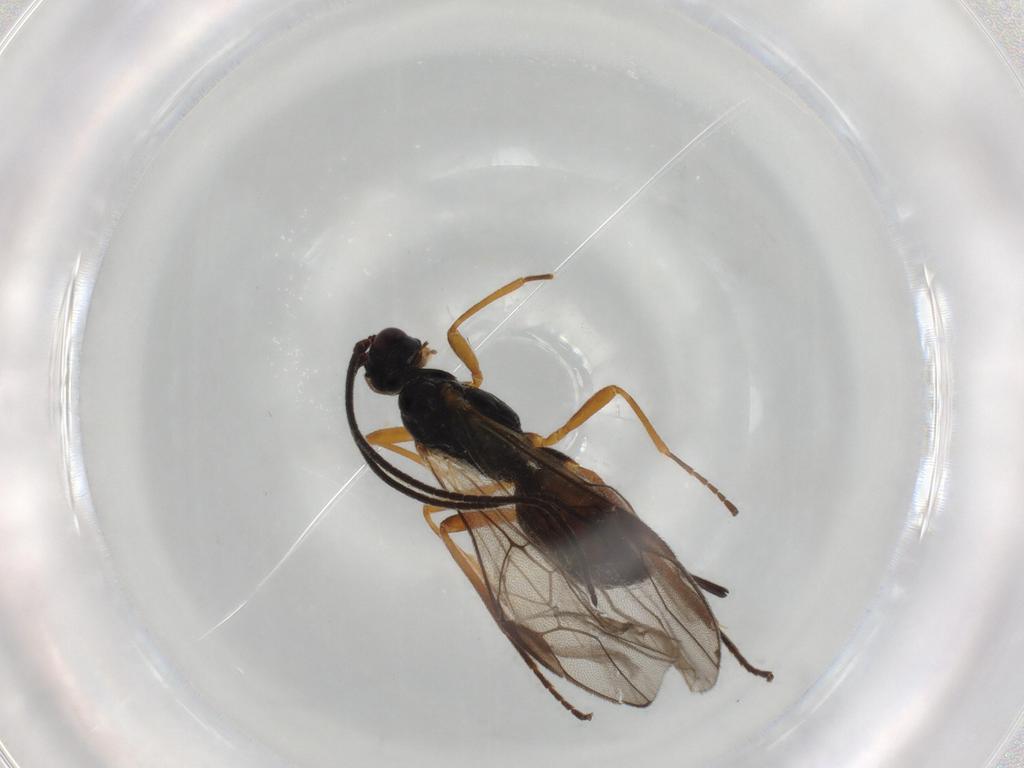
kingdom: Animalia
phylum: Arthropoda
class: Insecta
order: Hymenoptera
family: Braconidae
